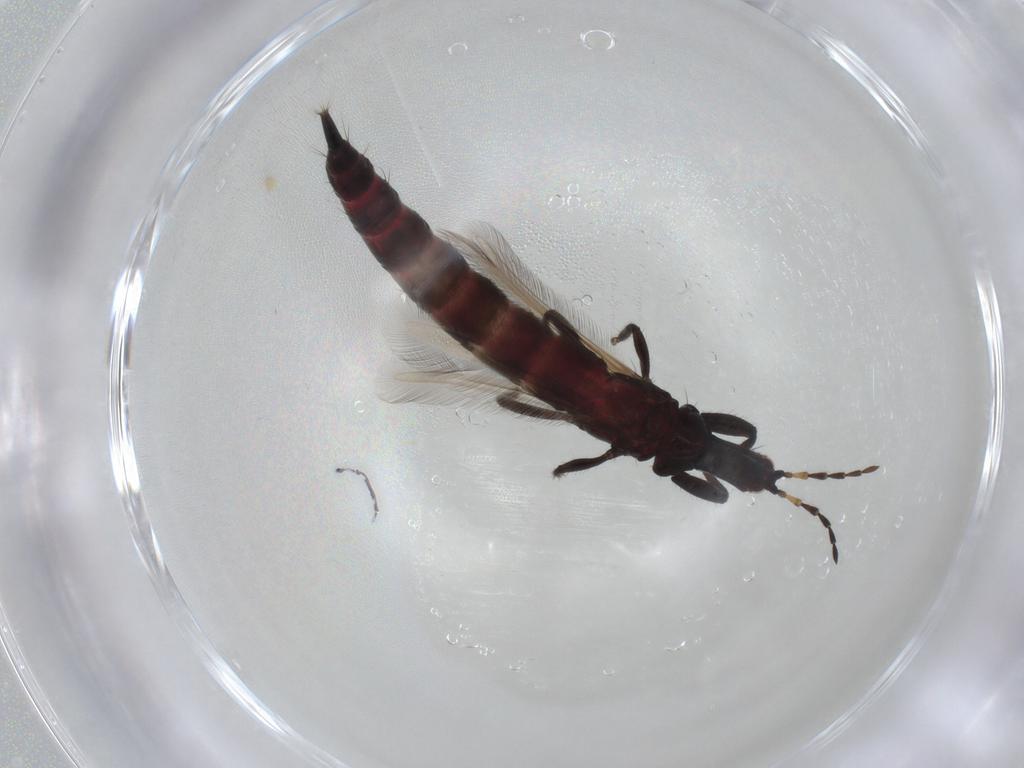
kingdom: Animalia
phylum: Arthropoda
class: Insecta
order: Thysanoptera
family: Phlaeothripidae
